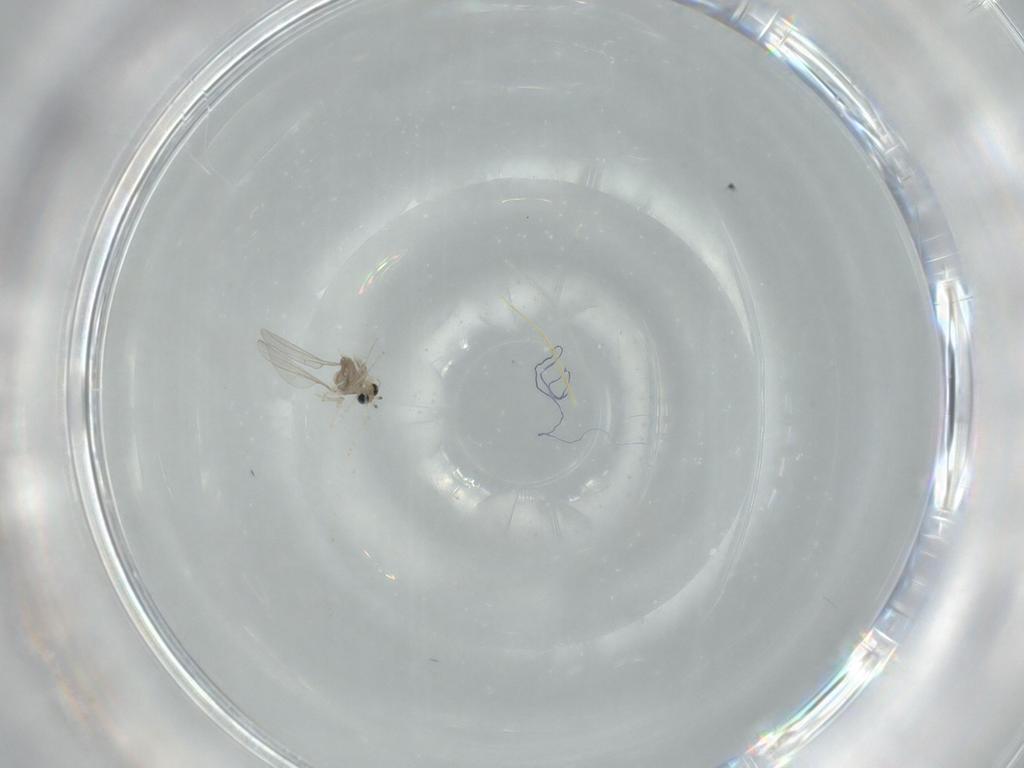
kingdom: Animalia
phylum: Arthropoda
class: Insecta
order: Diptera
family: Cecidomyiidae
